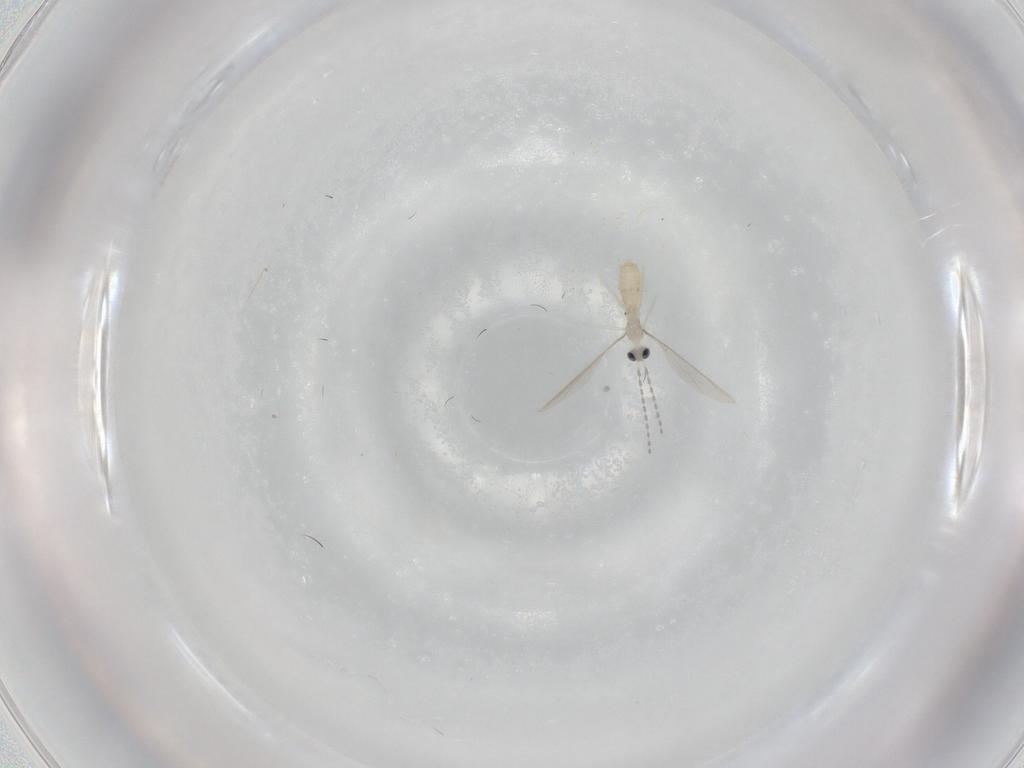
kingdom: Animalia
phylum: Arthropoda
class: Insecta
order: Diptera
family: Cecidomyiidae
